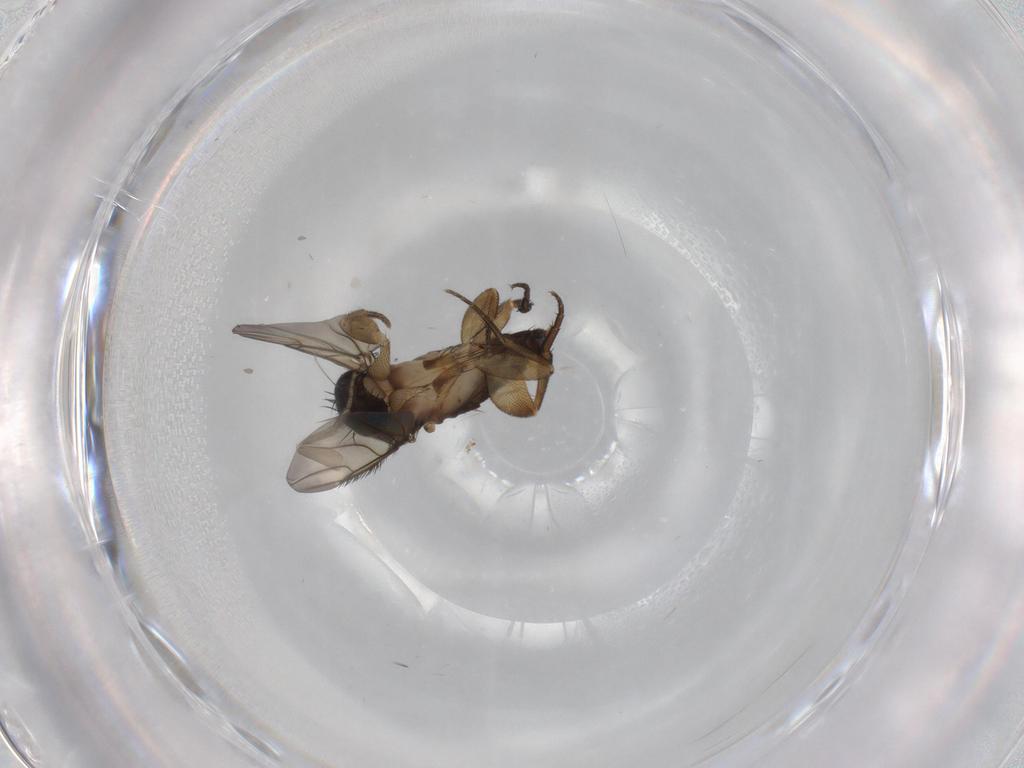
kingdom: Animalia
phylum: Arthropoda
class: Insecta
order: Diptera
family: Phoridae
